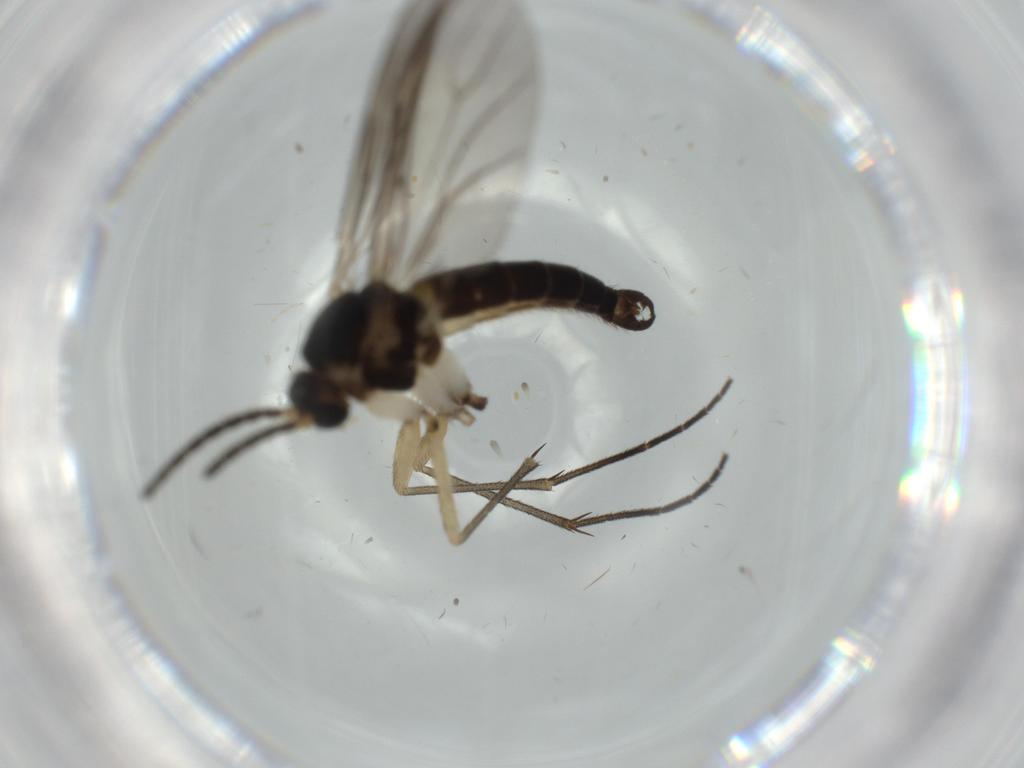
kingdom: Animalia
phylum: Arthropoda
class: Insecta
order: Diptera
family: Sciaridae
